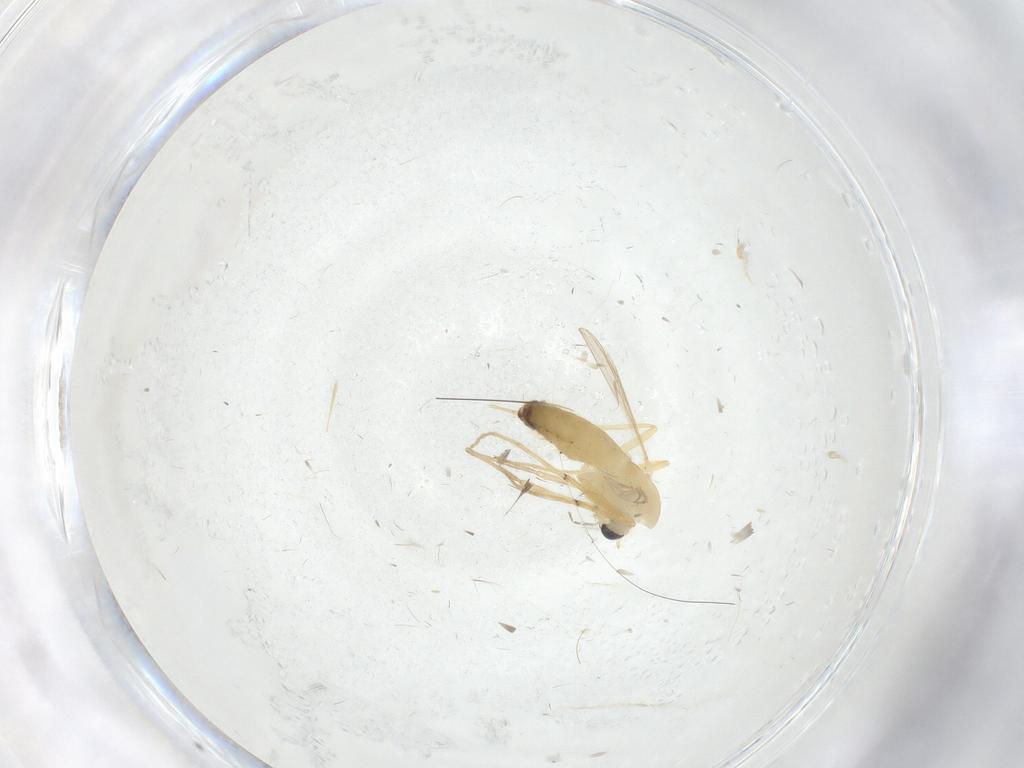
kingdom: Animalia
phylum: Arthropoda
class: Insecta
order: Diptera
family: Chironomidae
